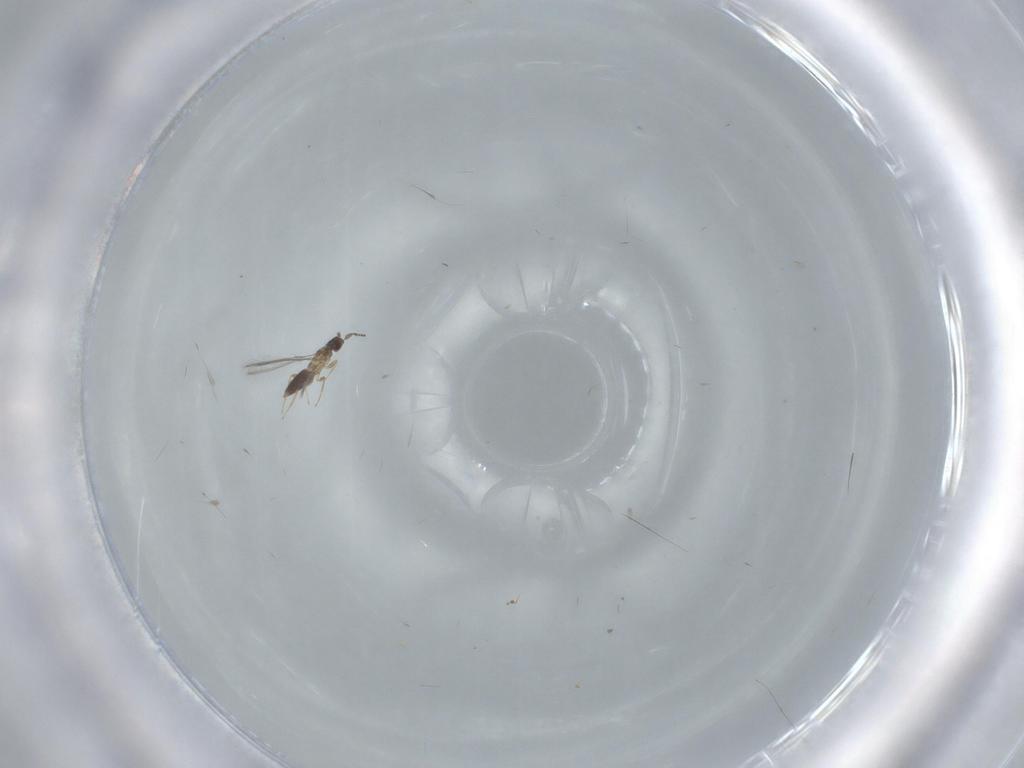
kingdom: Animalia
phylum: Arthropoda
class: Insecta
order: Hymenoptera
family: Mymaridae
